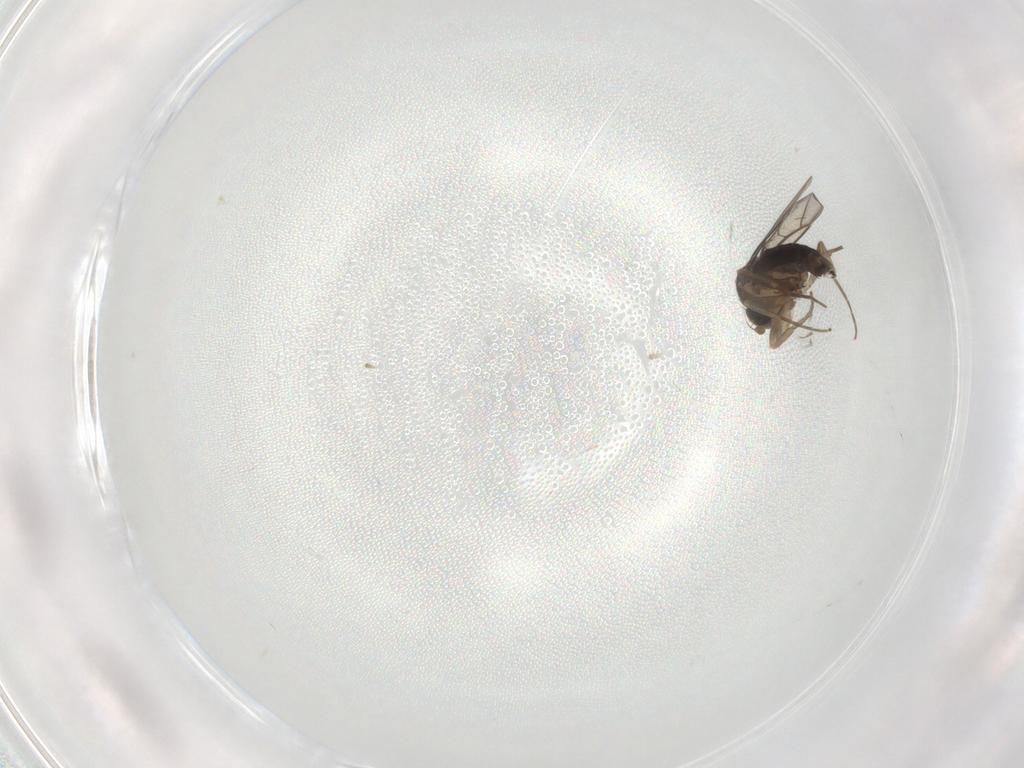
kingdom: Animalia
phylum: Arthropoda
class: Insecta
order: Diptera
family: Phoridae
